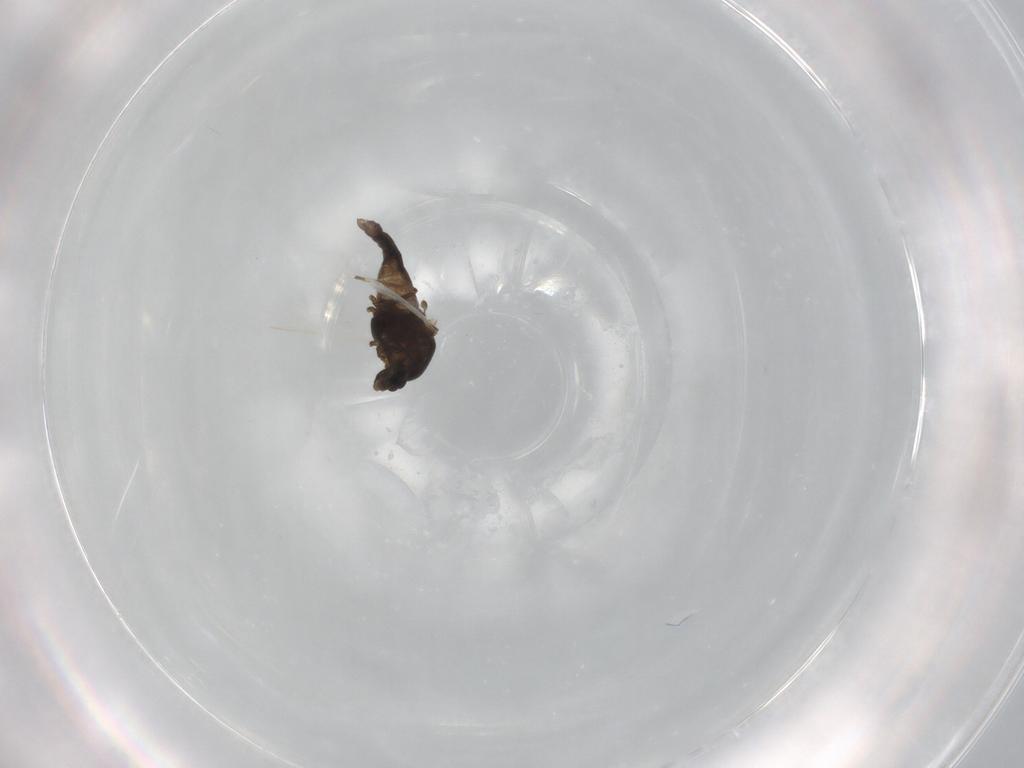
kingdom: Animalia
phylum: Arthropoda
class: Insecta
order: Diptera
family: Chironomidae
